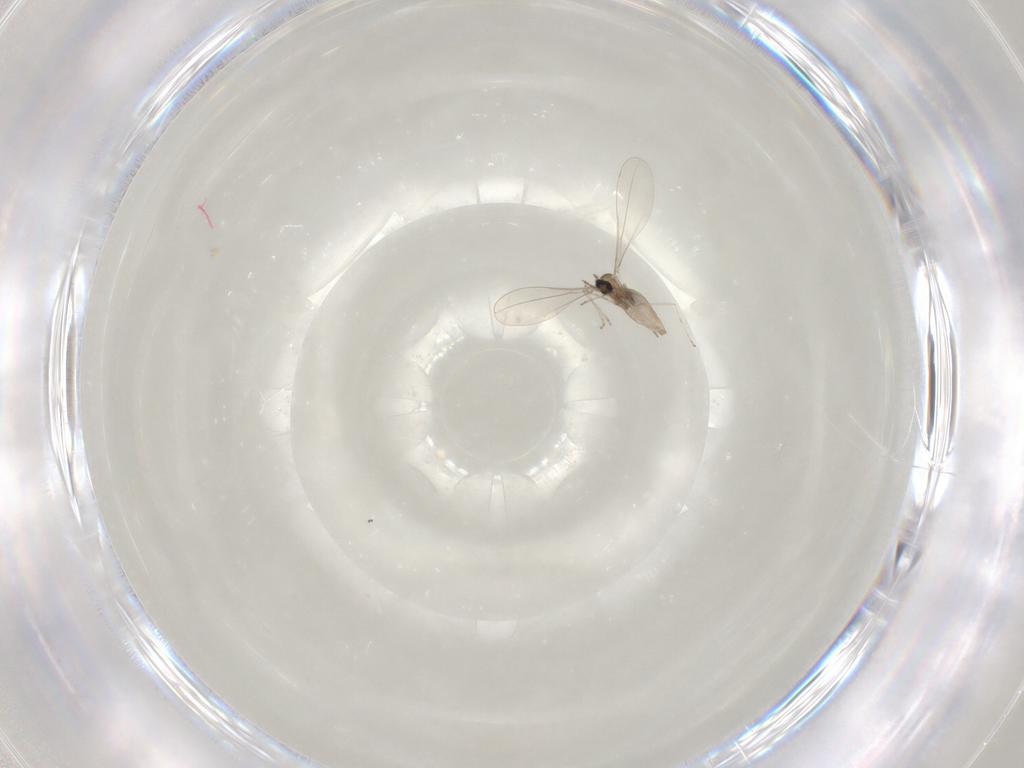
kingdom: Animalia
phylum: Arthropoda
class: Insecta
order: Diptera
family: Cecidomyiidae
